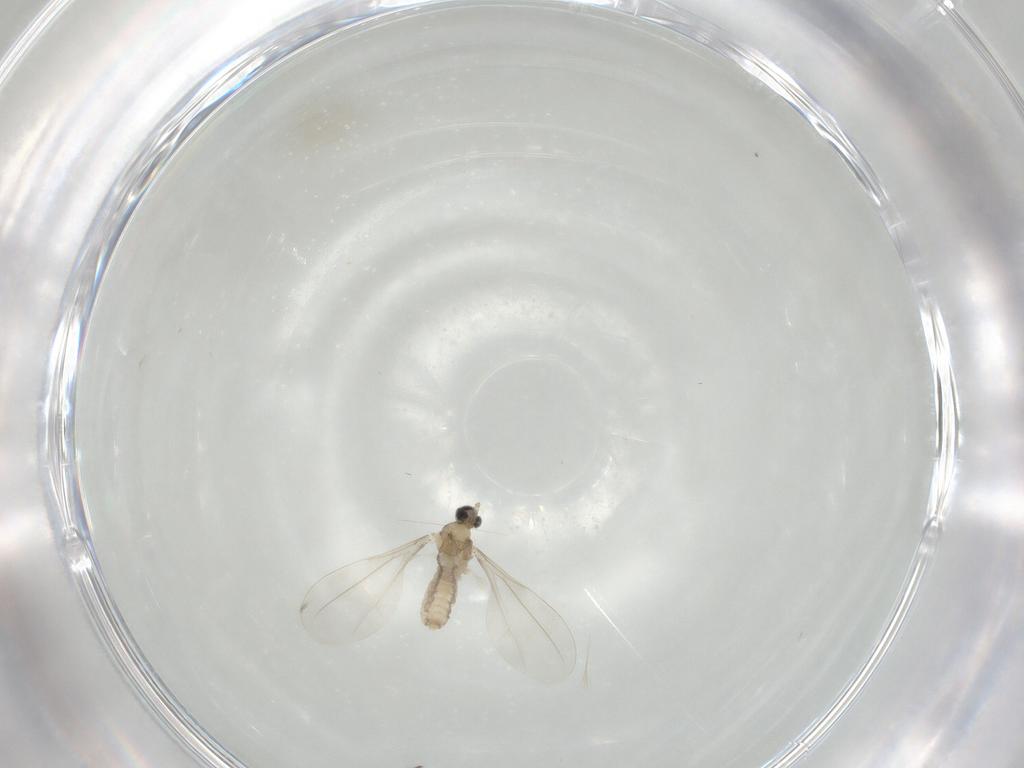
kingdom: Animalia
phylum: Arthropoda
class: Insecta
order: Diptera
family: Cecidomyiidae
